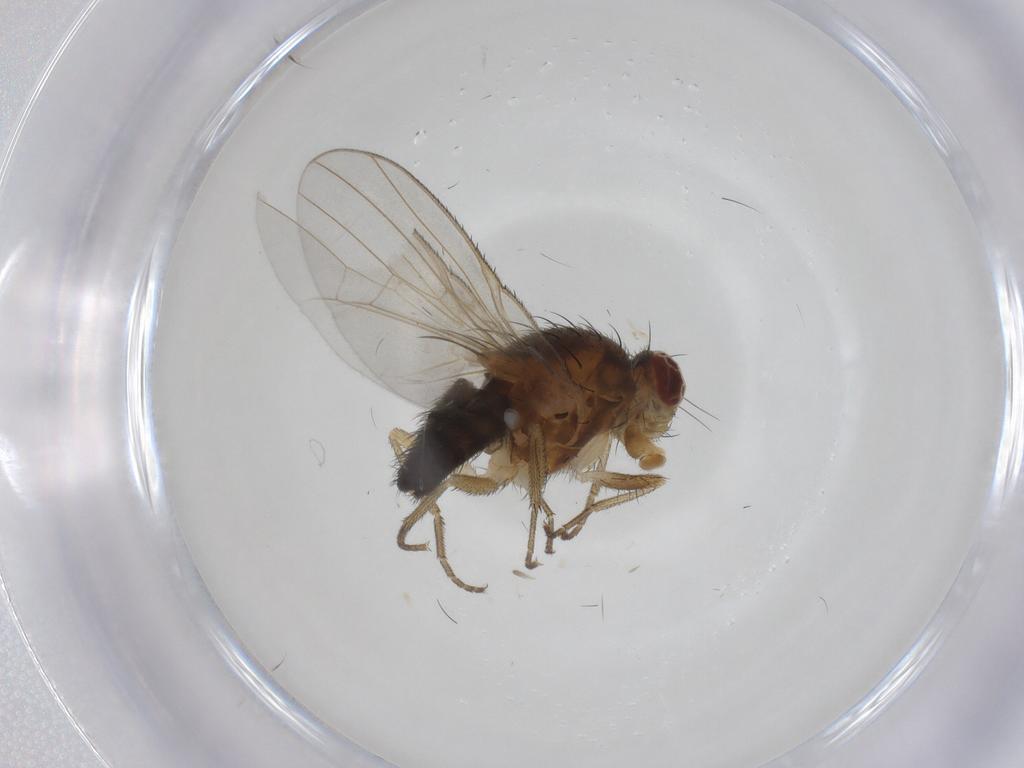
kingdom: Animalia
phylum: Arthropoda
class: Insecta
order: Diptera
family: Heleomyzidae
